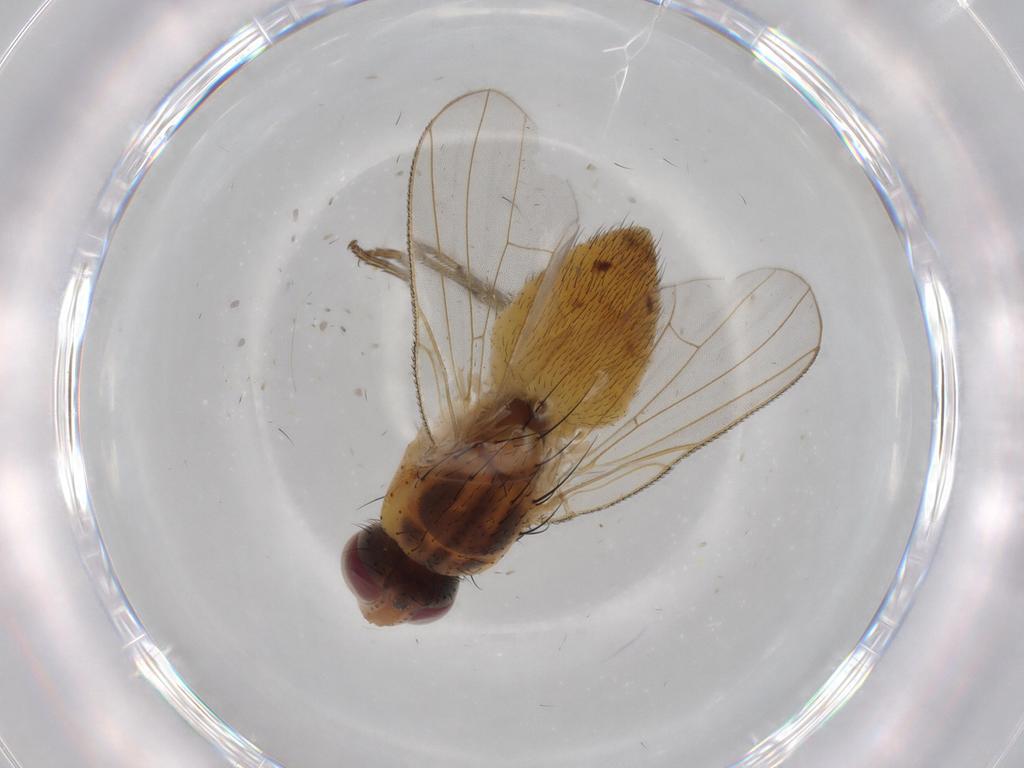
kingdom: Animalia
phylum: Arthropoda
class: Insecta
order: Diptera
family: Muscidae
